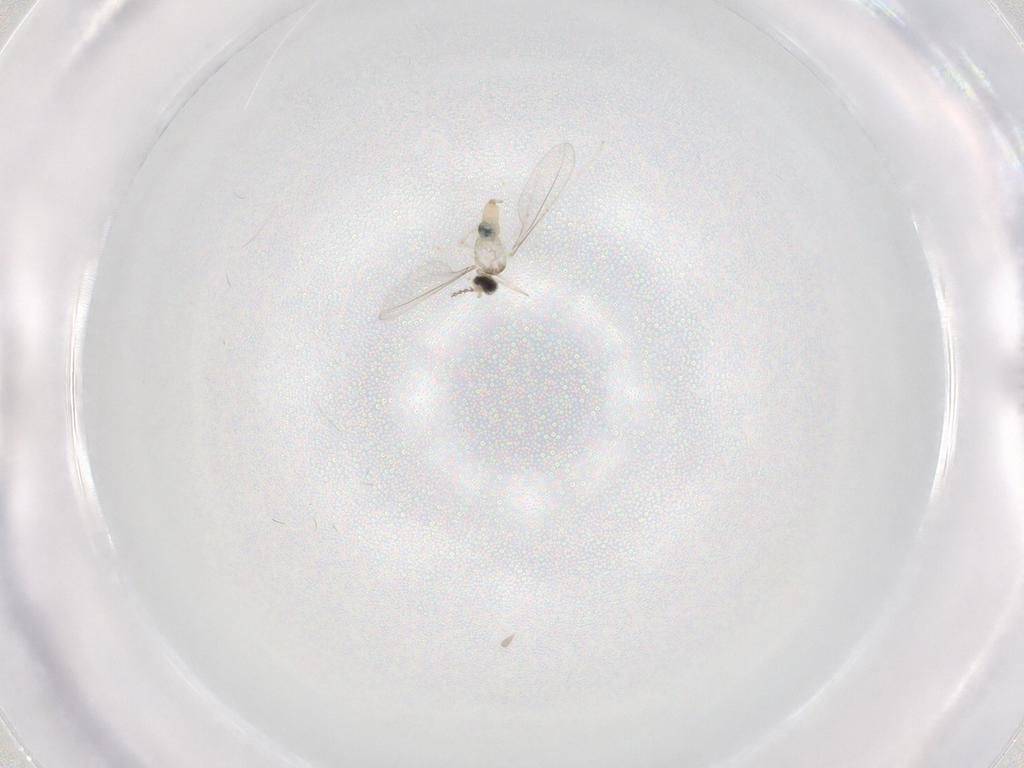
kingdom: Animalia
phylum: Arthropoda
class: Insecta
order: Diptera
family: Cecidomyiidae
